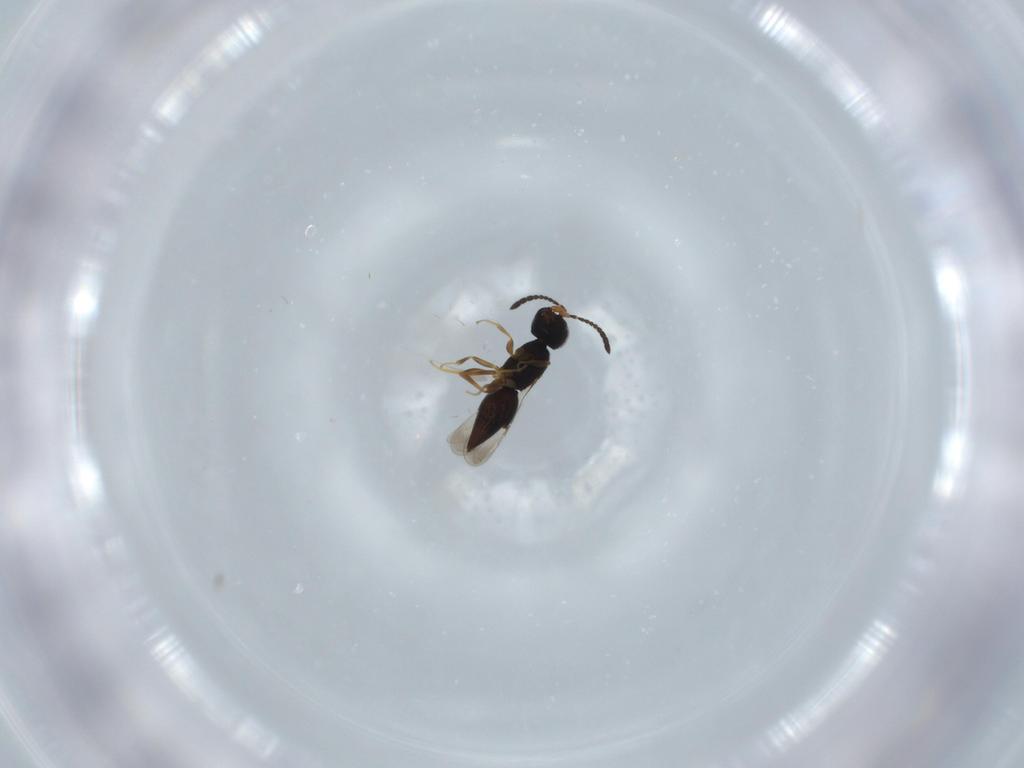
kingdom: Animalia
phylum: Arthropoda
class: Insecta
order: Hymenoptera
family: Ceraphronidae
